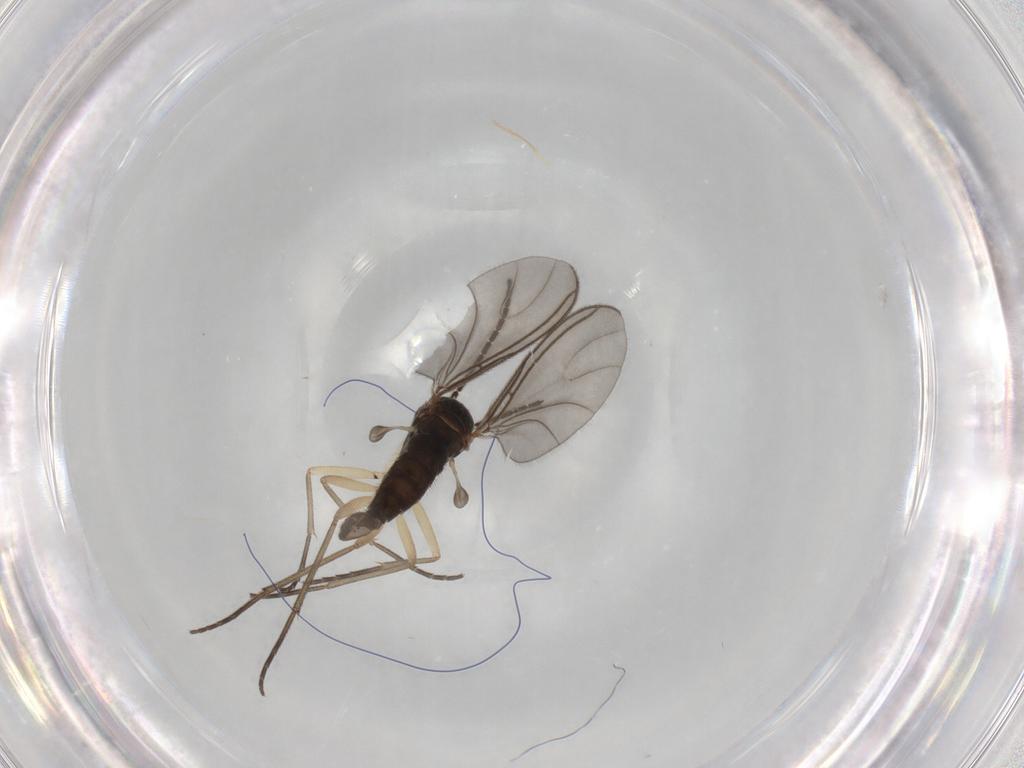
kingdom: Animalia
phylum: Arthropoda
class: Insecta
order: Diptera
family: Sciaridae
